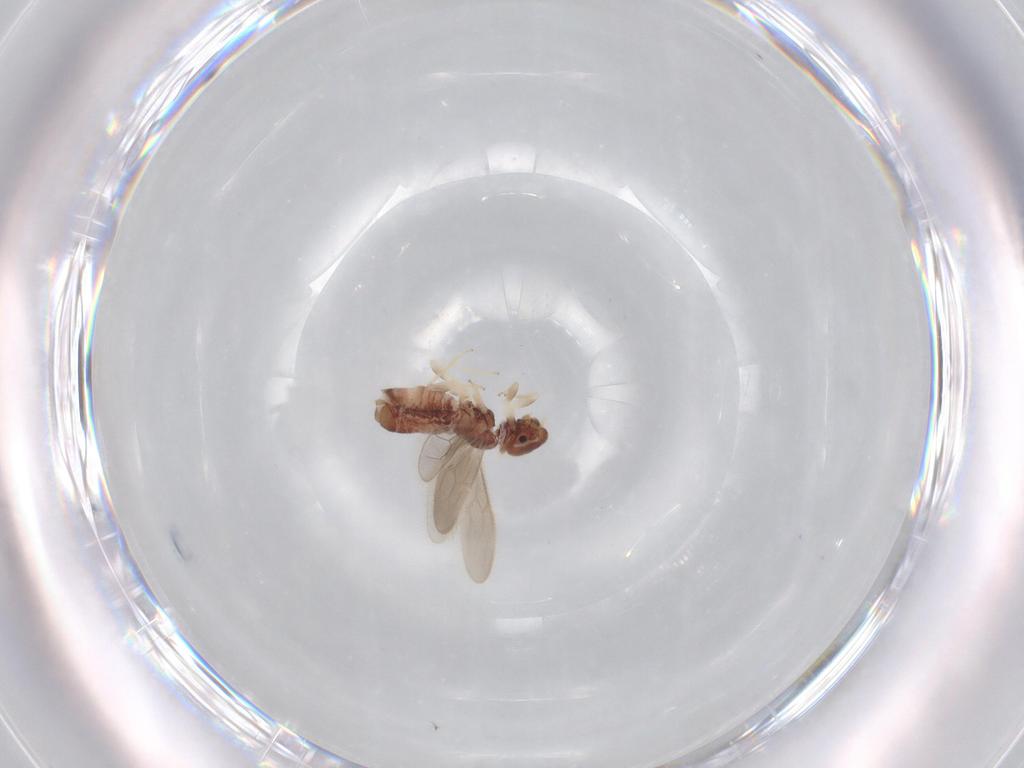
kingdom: Animalia
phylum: Arthropoda
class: Insecta
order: Psocodea
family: Archipsocidae
